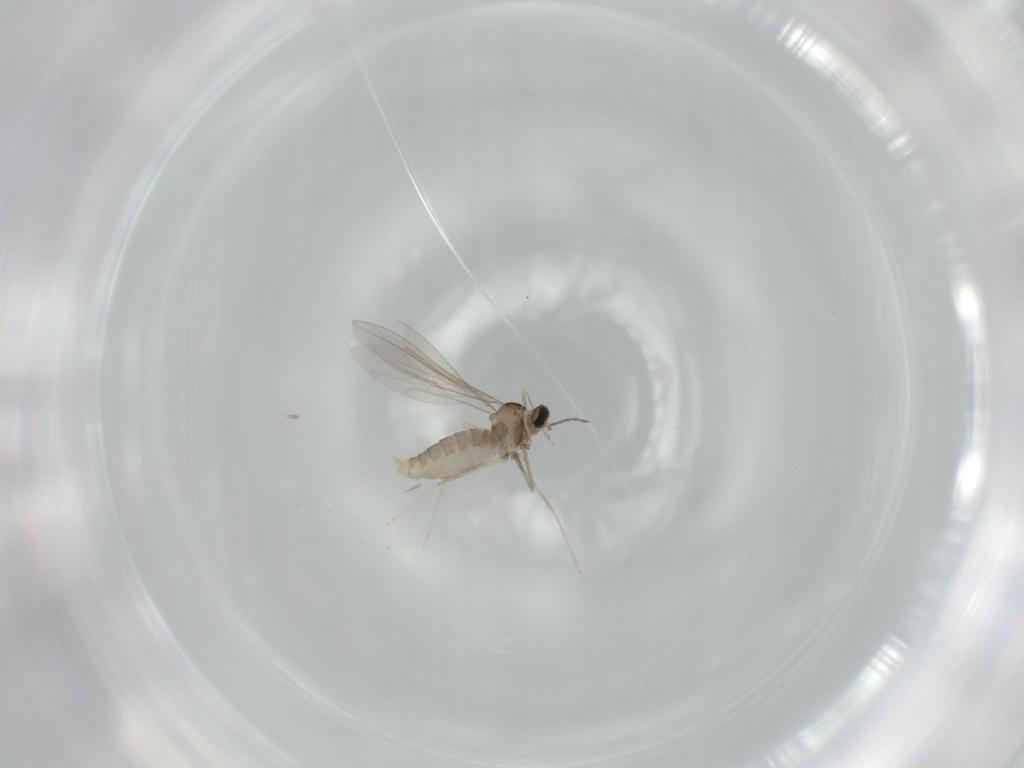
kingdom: Animalia
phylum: Arthropoda
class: Insecta
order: Diptera
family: Cecidomyiidae
